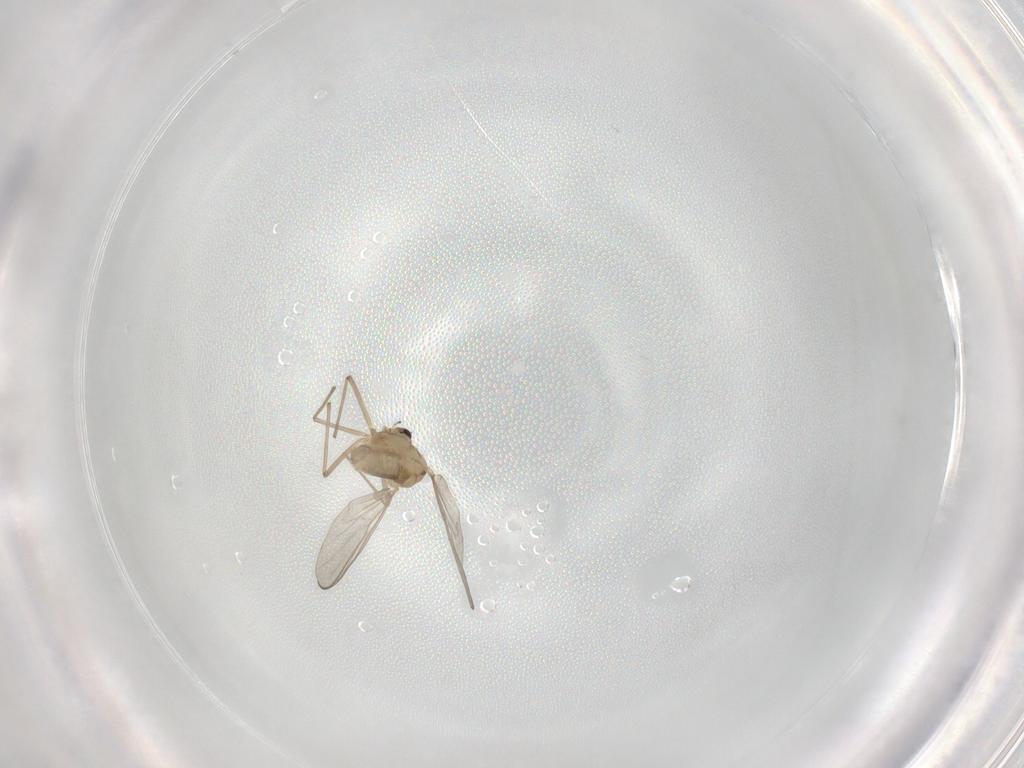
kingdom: Animalia
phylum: Arthropoda
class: Insecta
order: Diptera
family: Chironomidae
